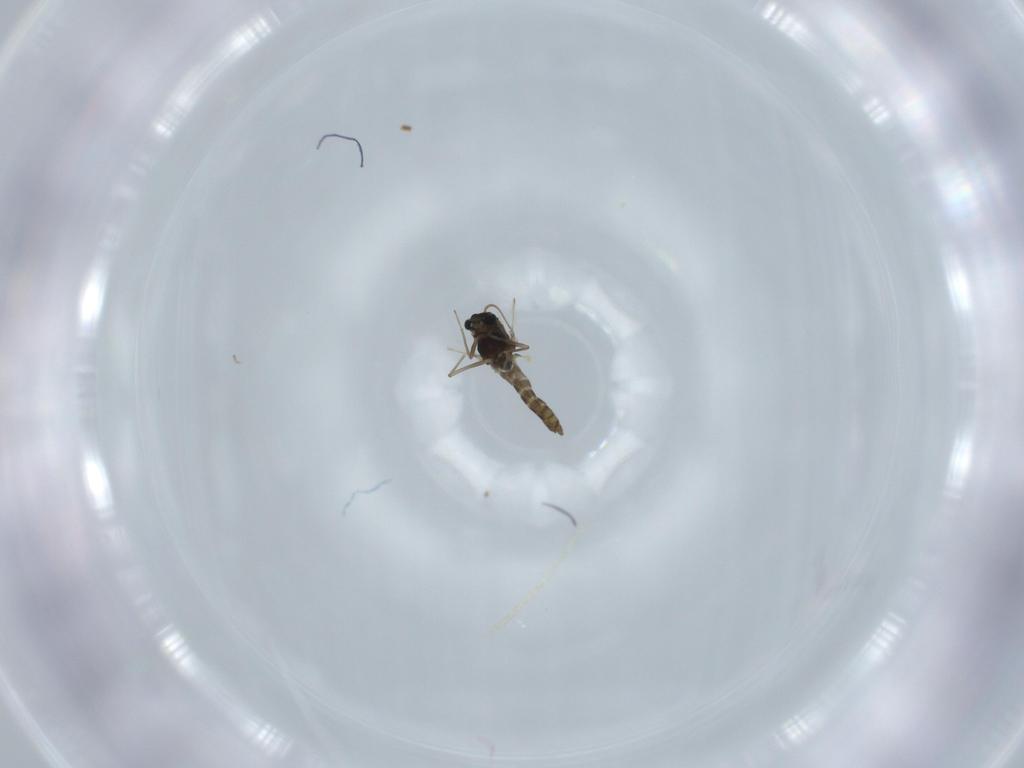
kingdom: Animalia
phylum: Arthropoda
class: Insecta
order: Diptera
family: Chironomidae
